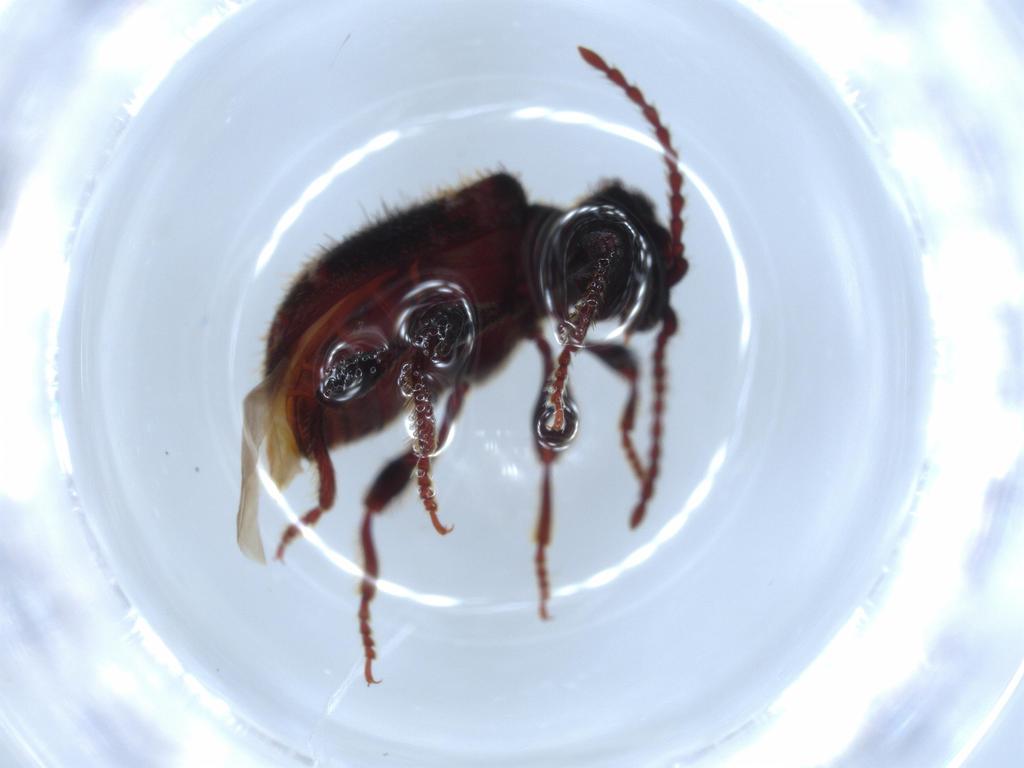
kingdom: Animalia
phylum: Arthropoda
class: Insecta
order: Coleoptera
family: Ptinidae
